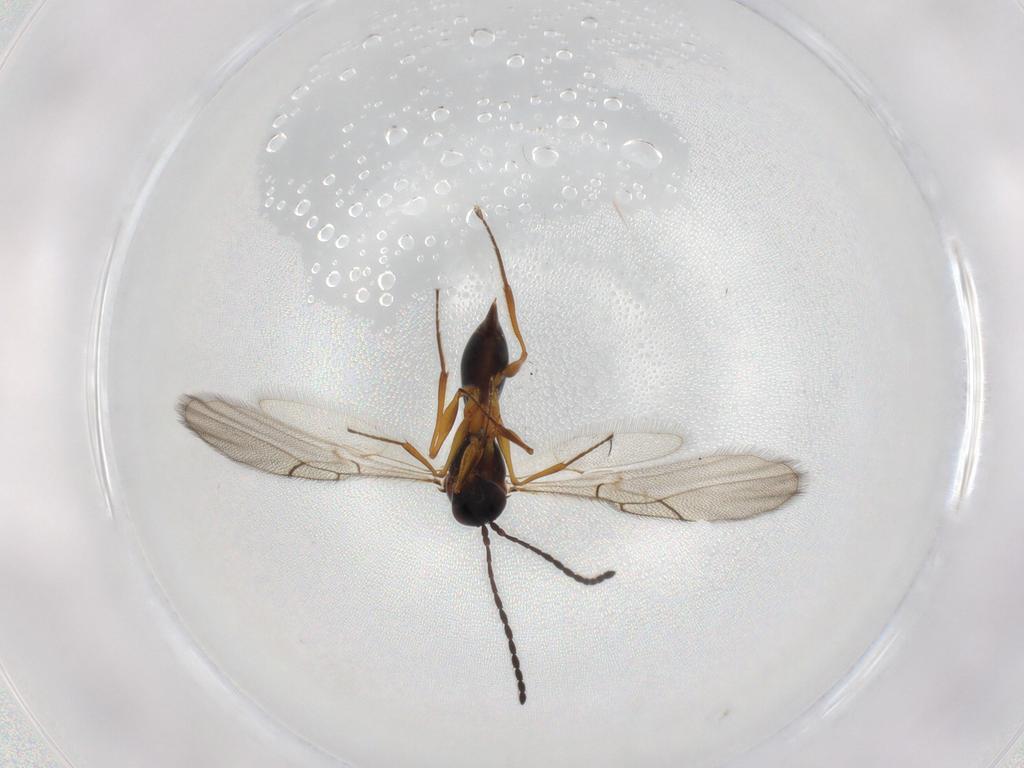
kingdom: Animalia
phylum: Arthropoda
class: Insecta
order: Hymenoptera
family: Figitidae
